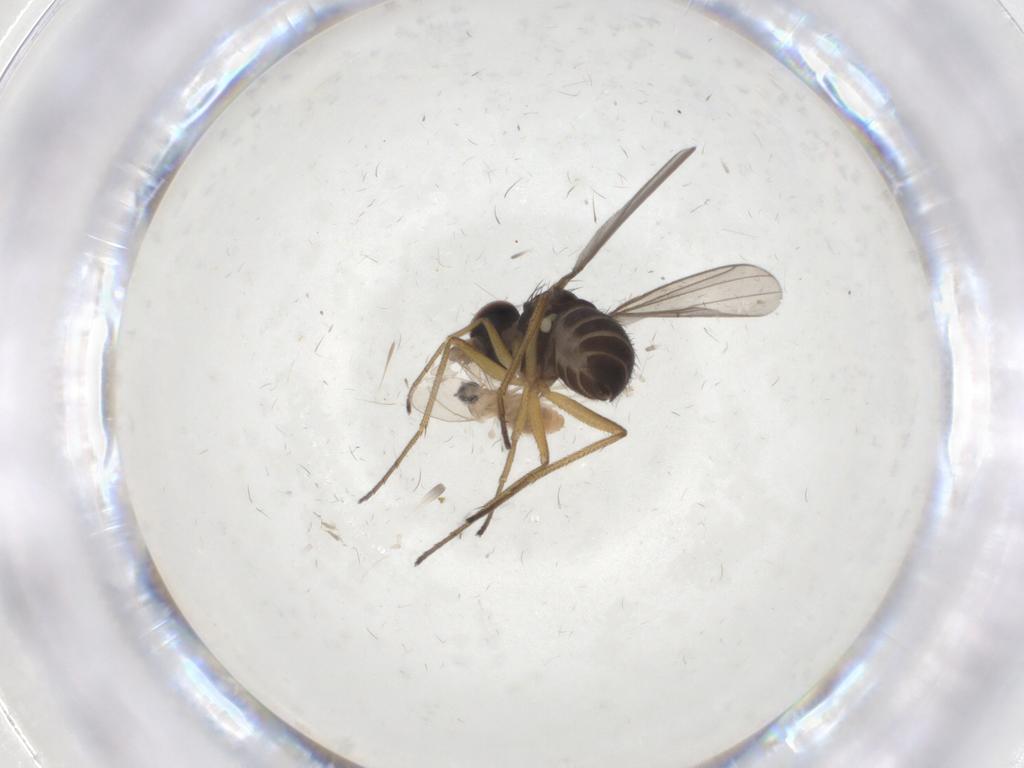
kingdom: Animalia
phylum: Arthropoda
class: Insecta
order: Diptera
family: Dolichopodidae
